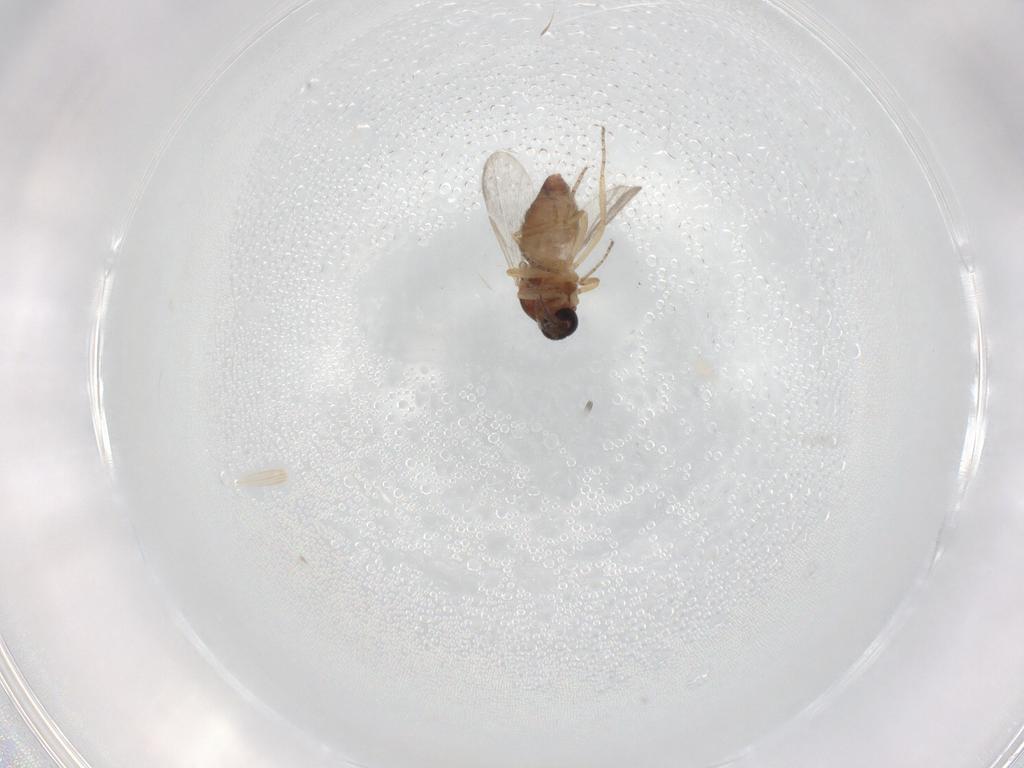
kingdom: Animalia
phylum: Arthropoda
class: Insecta
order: Diptera
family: Ceratopogonidae
